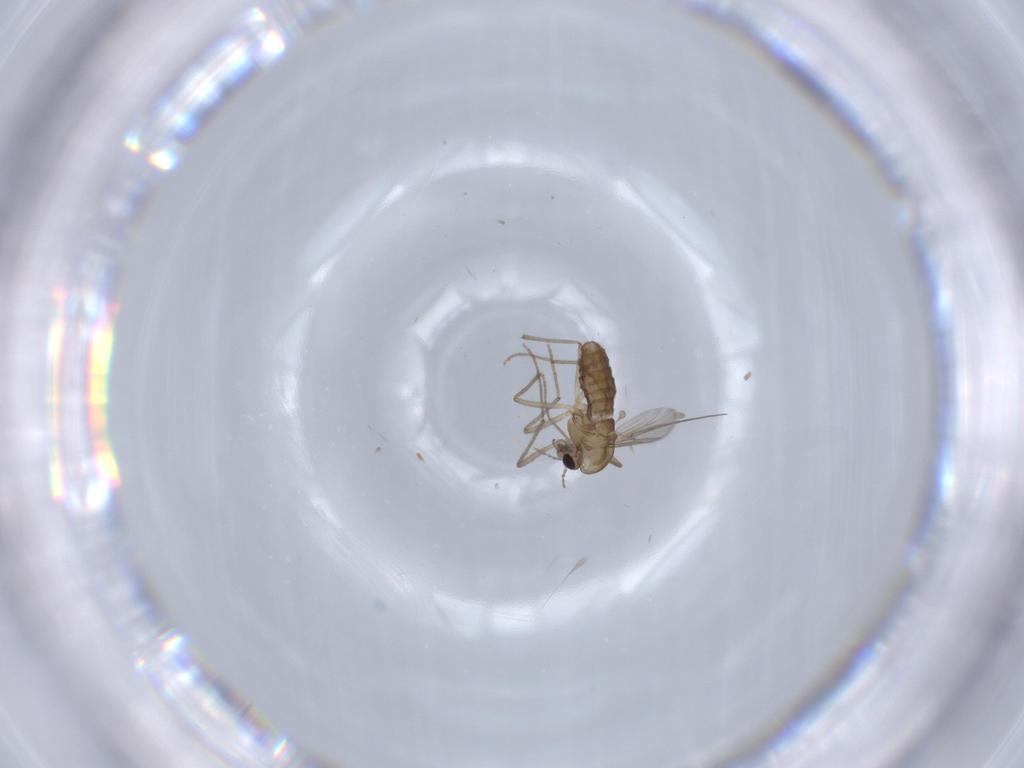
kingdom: Animalia
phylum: Arthropoda
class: Insecta
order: Diptera
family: Chironomidae
